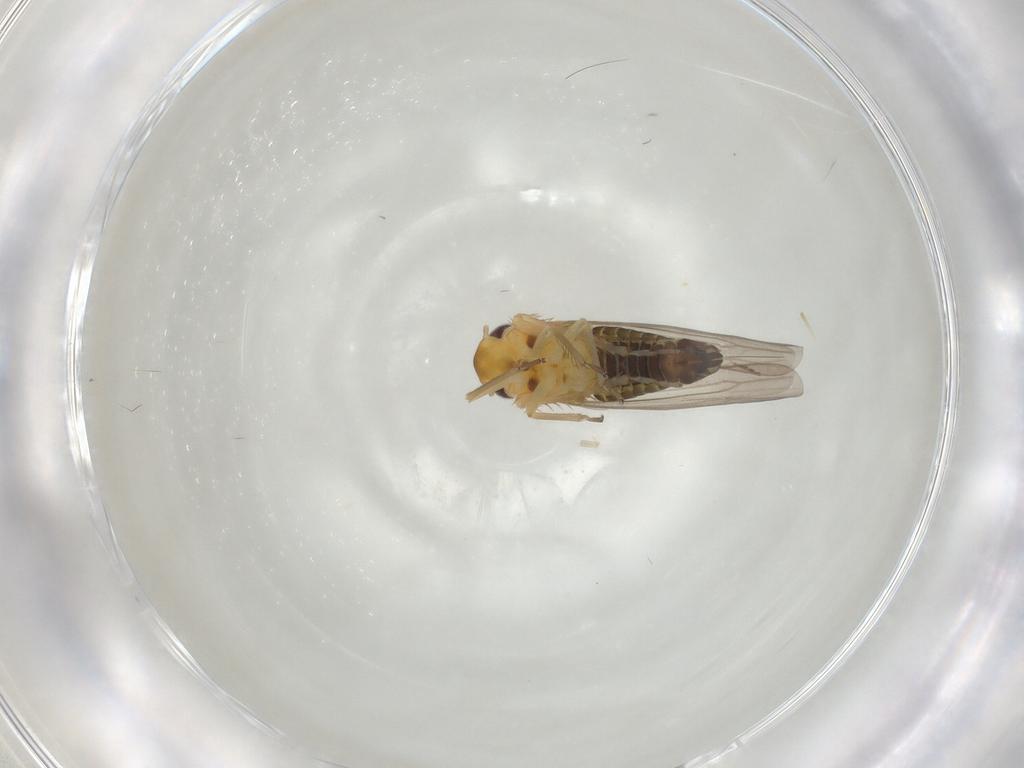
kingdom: Animalia
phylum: Arthropoda
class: Insecta
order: Hemiptera
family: Cicadellidae
